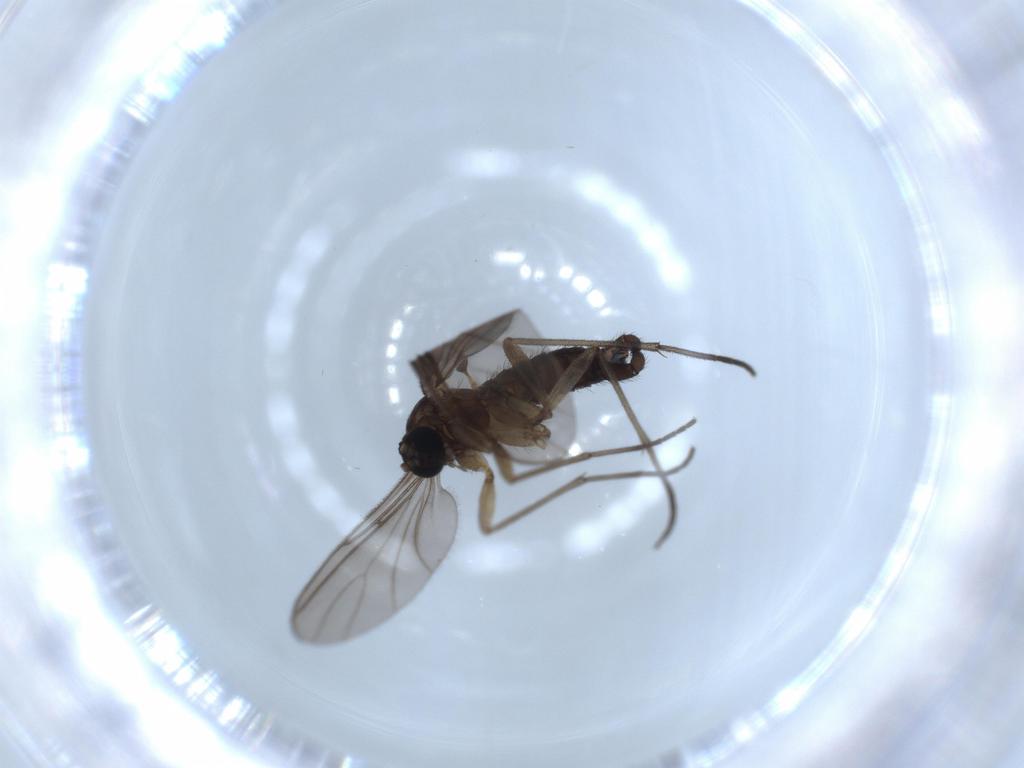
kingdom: Animalia
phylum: Arthropoda
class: Insecta
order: Diptera
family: Sciaridae
